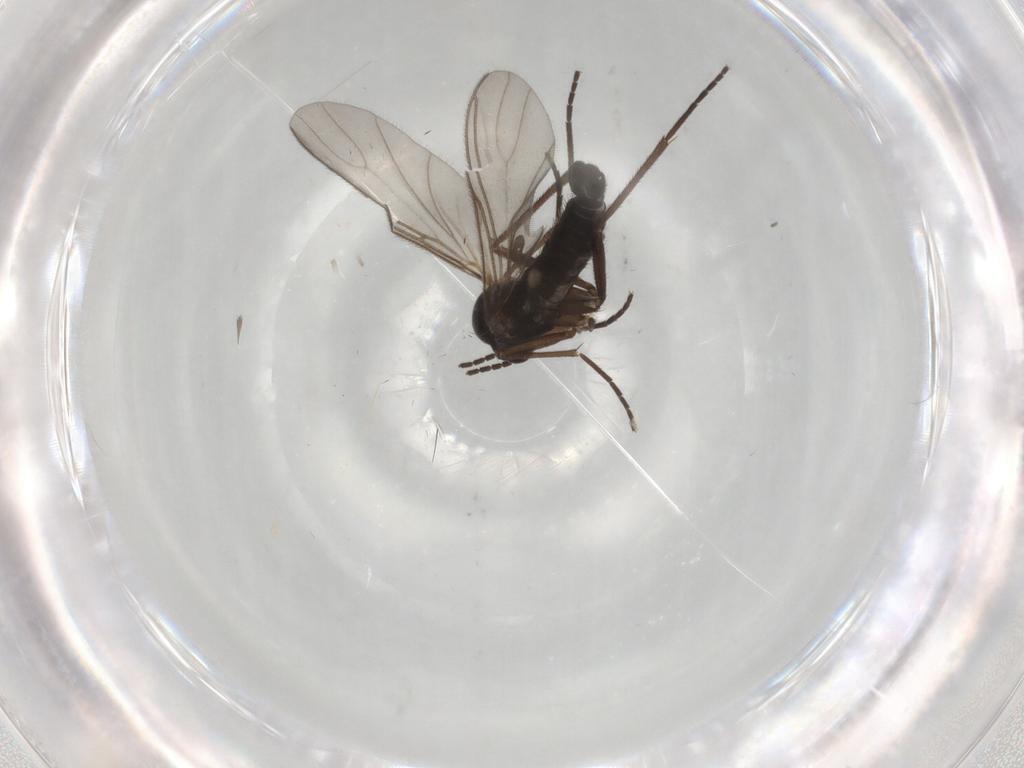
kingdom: Animalia
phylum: Arthropoda
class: Insecta
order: Diptera
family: Sciaridae
